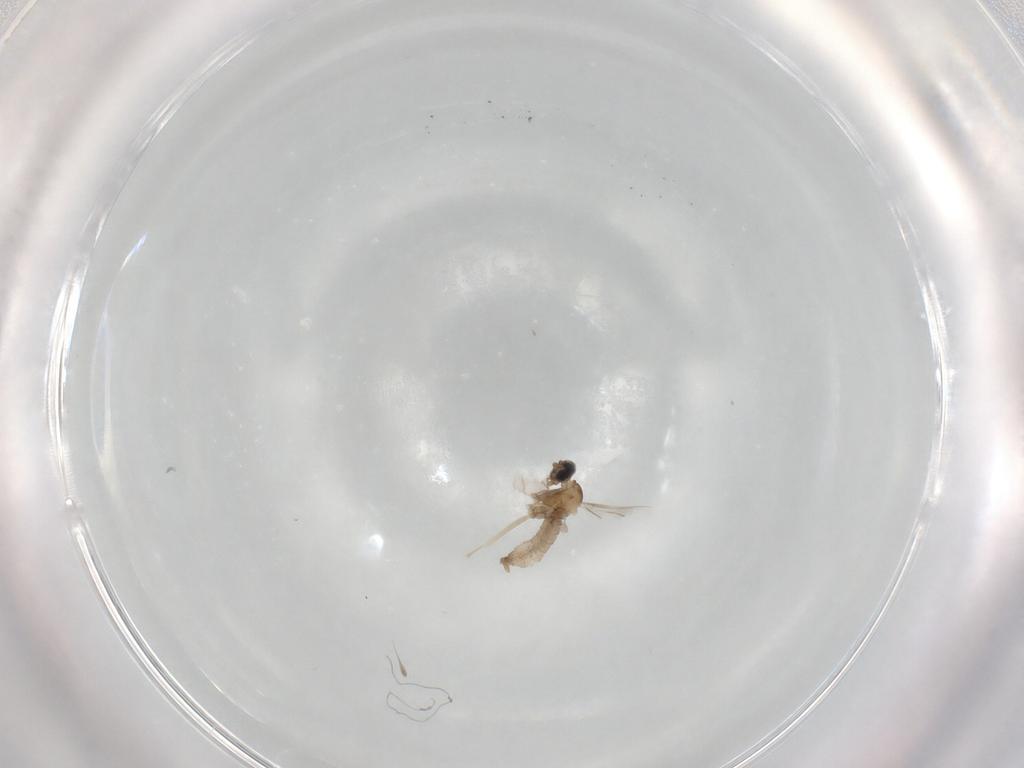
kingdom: Animalia
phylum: Arthropoda
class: Insecta
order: Diptera
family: Cecidomyiidae
